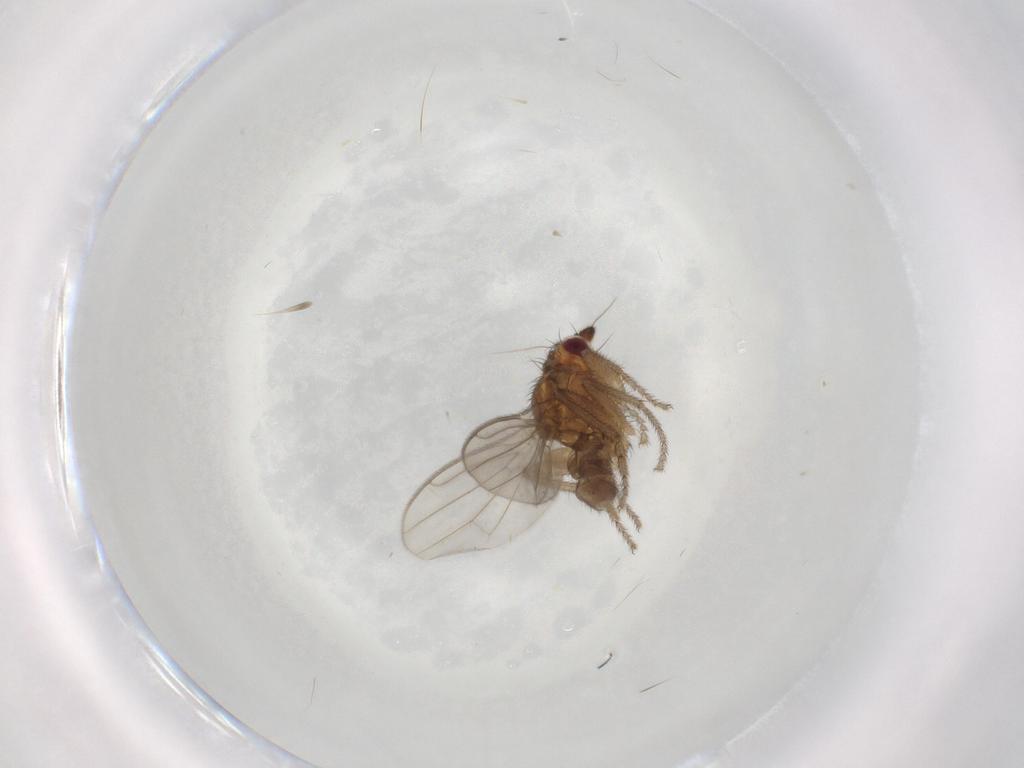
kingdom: Animalia
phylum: Arthropoda
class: Insecta
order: Diptera
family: Sphaeroceridae
